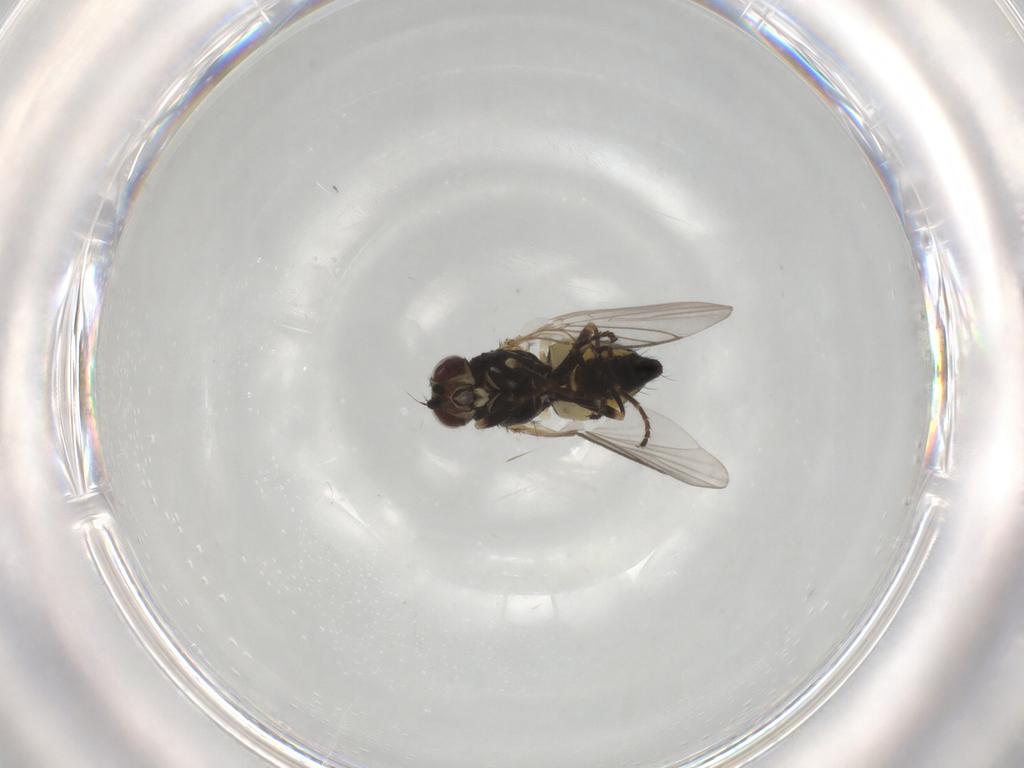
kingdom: Animalia
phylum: Arthropoda
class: Insecta
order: Diptera
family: Agromyzidae
